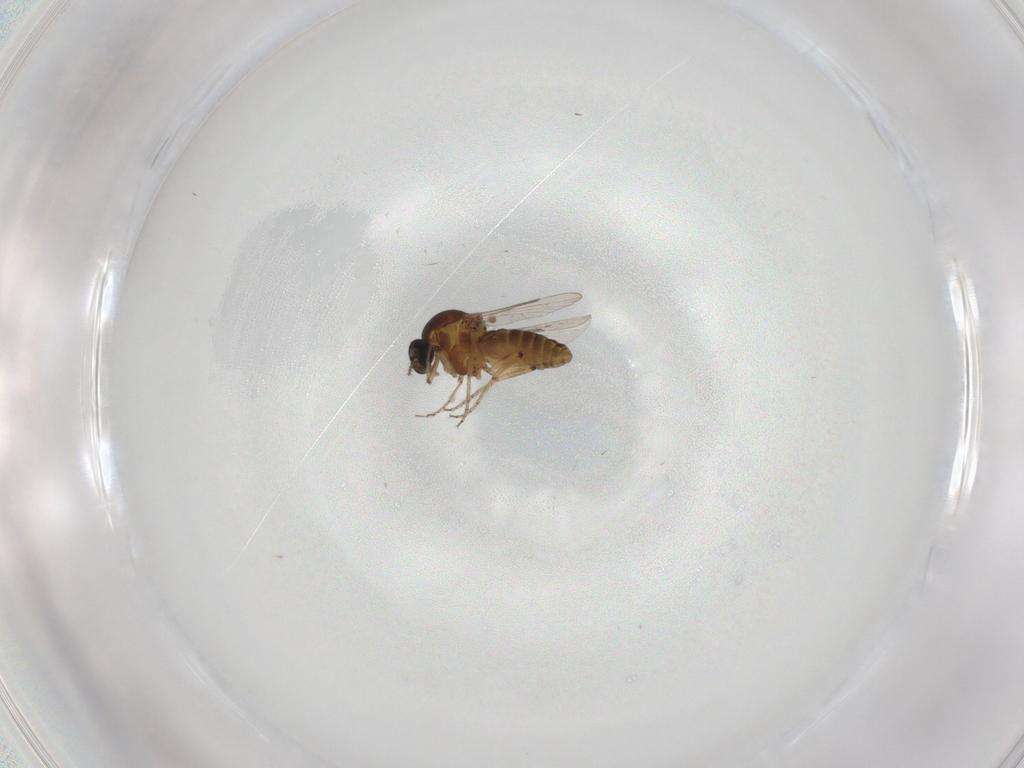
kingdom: Animalia
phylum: Arthropoda
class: Insecta
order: Diptera
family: Ceratopogonidae
